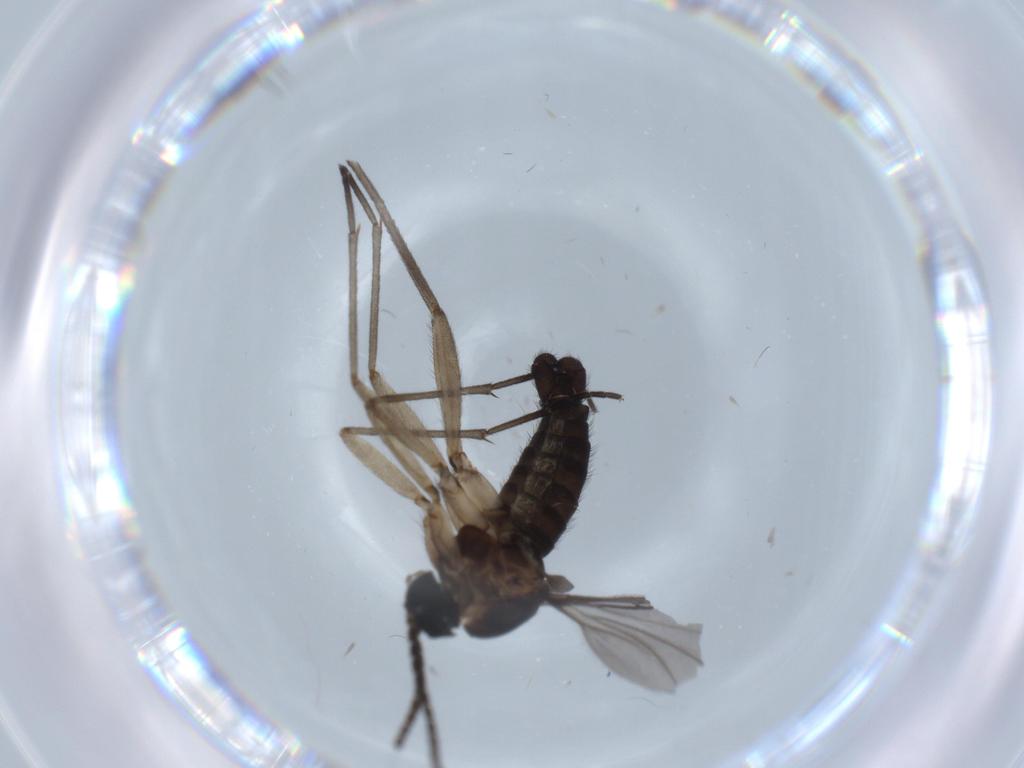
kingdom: Animalia
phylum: Arthropoda
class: Insecta
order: Diptera
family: Sciaridae
